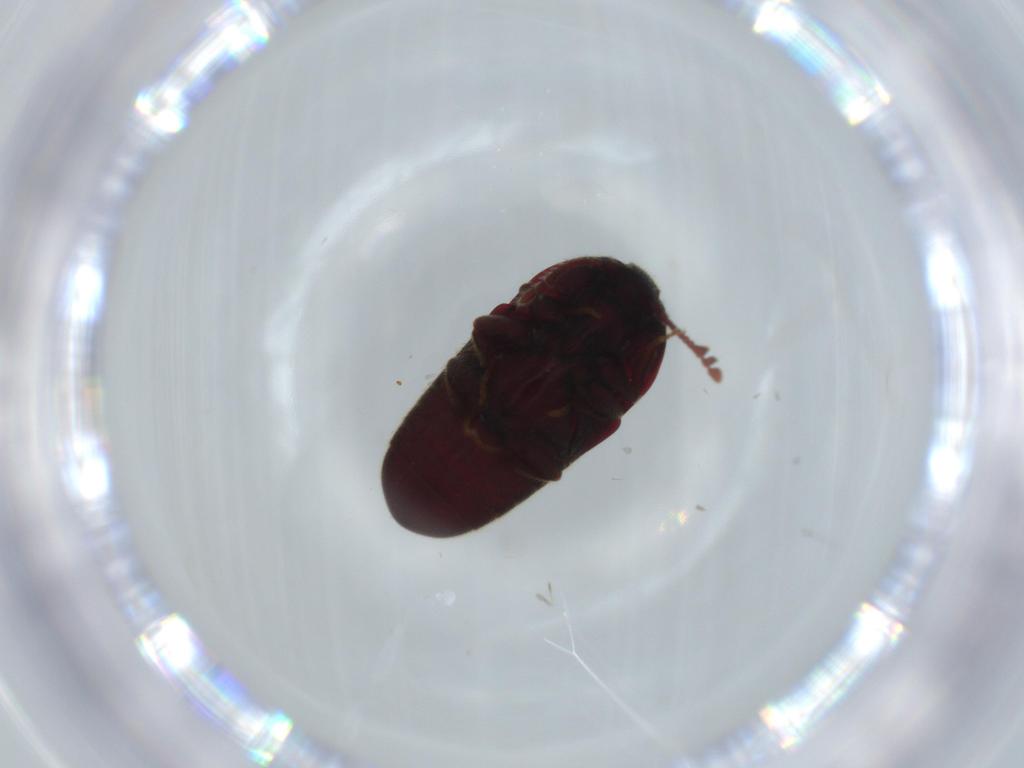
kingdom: Animalia
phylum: Arthropoda
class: Insecta
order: Coleoptera
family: Throscidae
